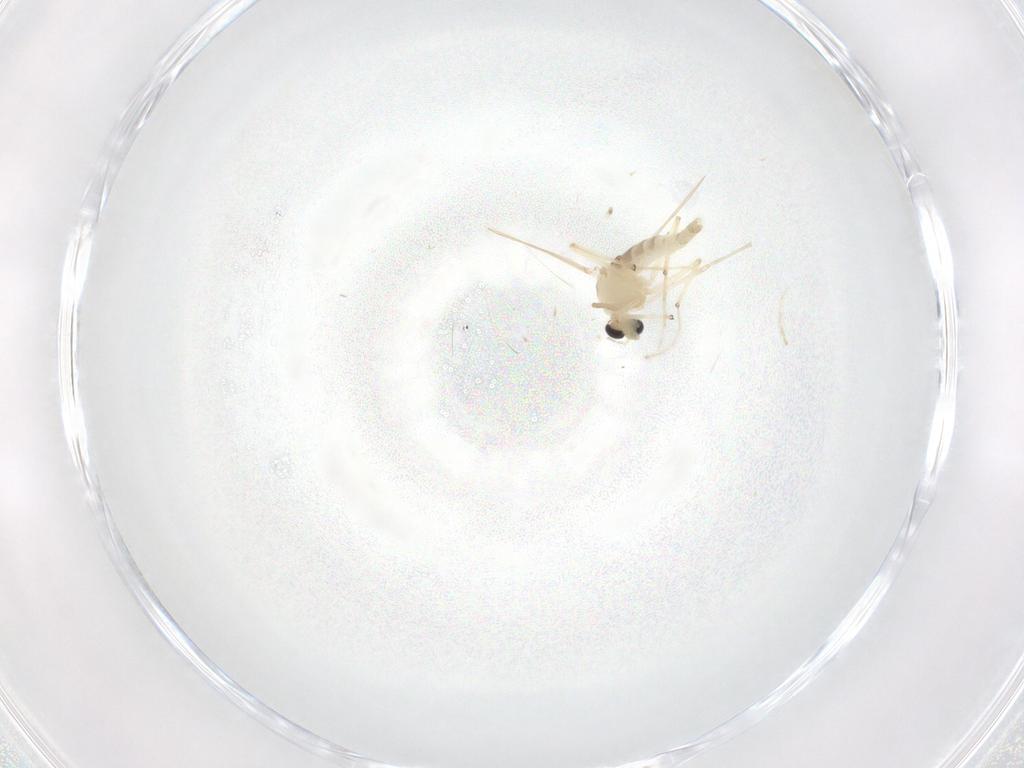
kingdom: Animalia
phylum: Arthropoda
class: Insecta
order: Diptera
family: Chironomidae
